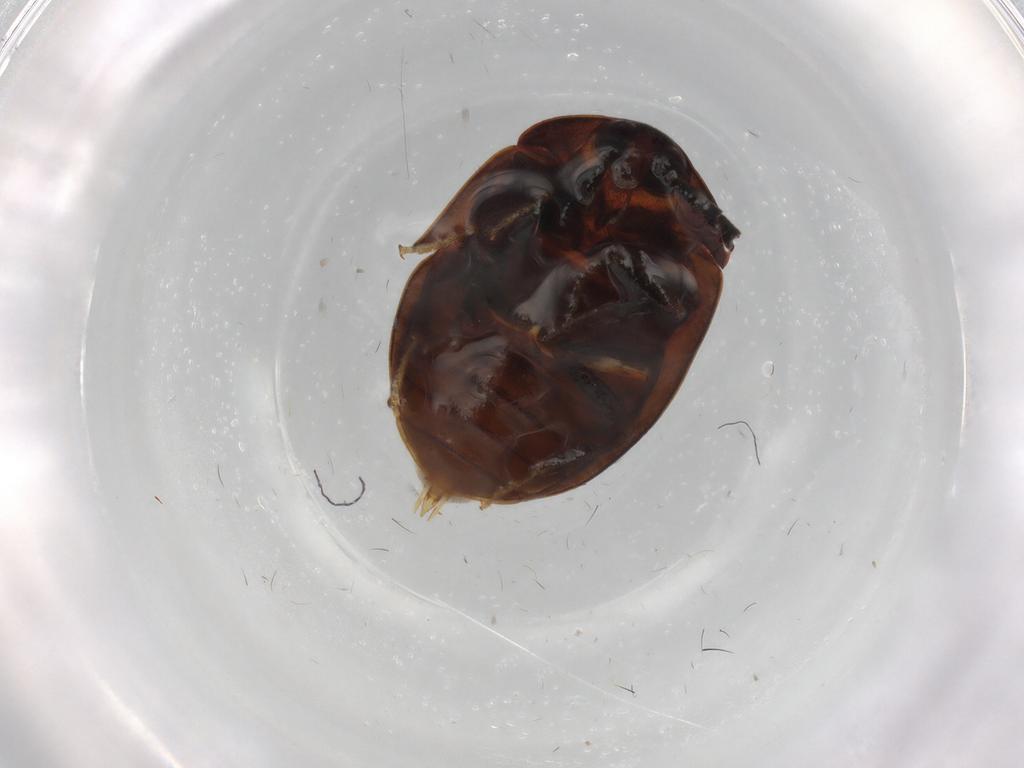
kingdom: Animalia
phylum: Arthropoda
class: Insecta
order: Coleoptera
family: Psephenidae
